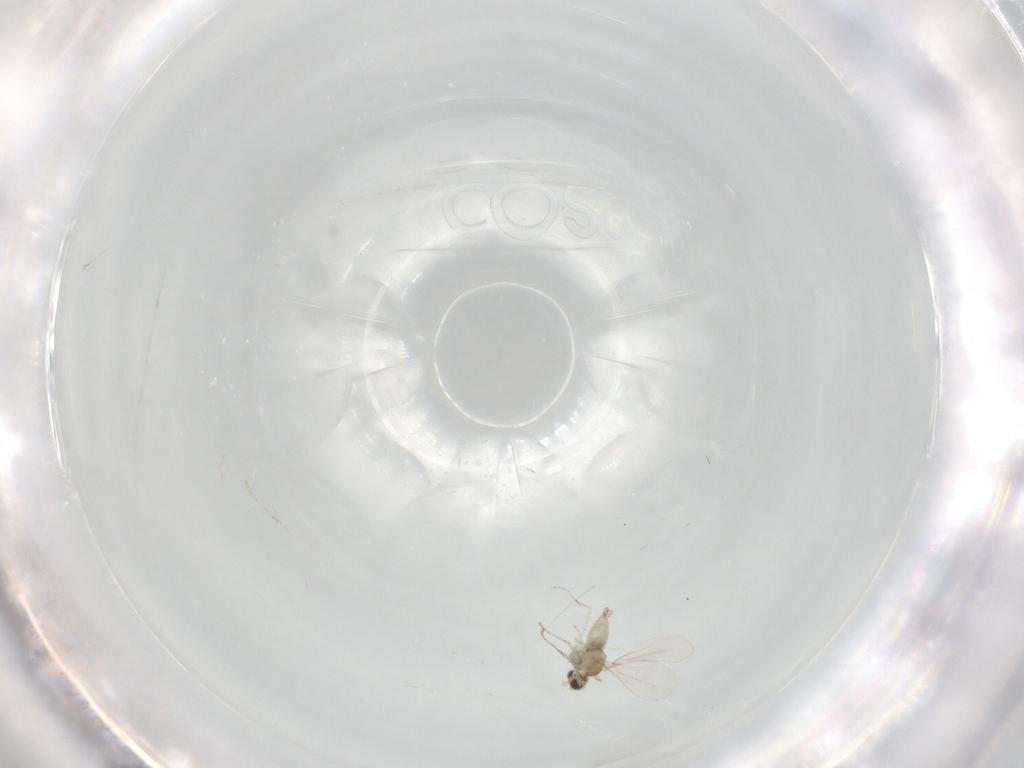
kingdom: Animalia
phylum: Arthropoda
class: Insecta
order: Diptera
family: Cecidomyiidae
